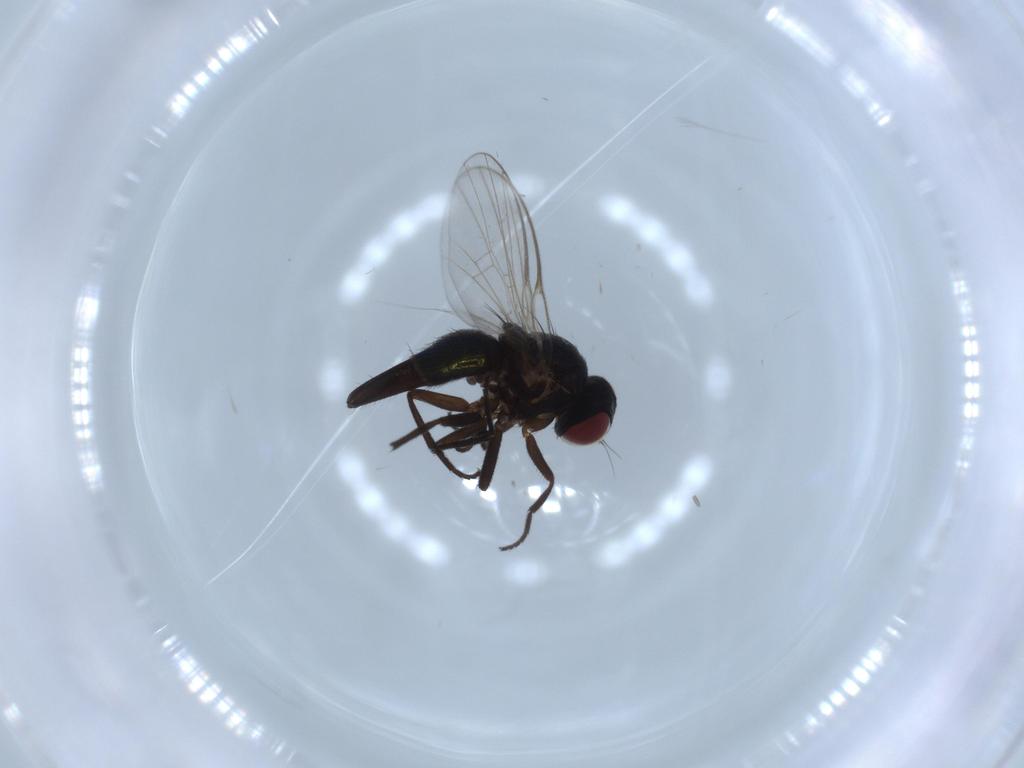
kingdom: Animalia
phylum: Arthropoda
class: Insecta
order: Diptera
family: Agromyzidae
